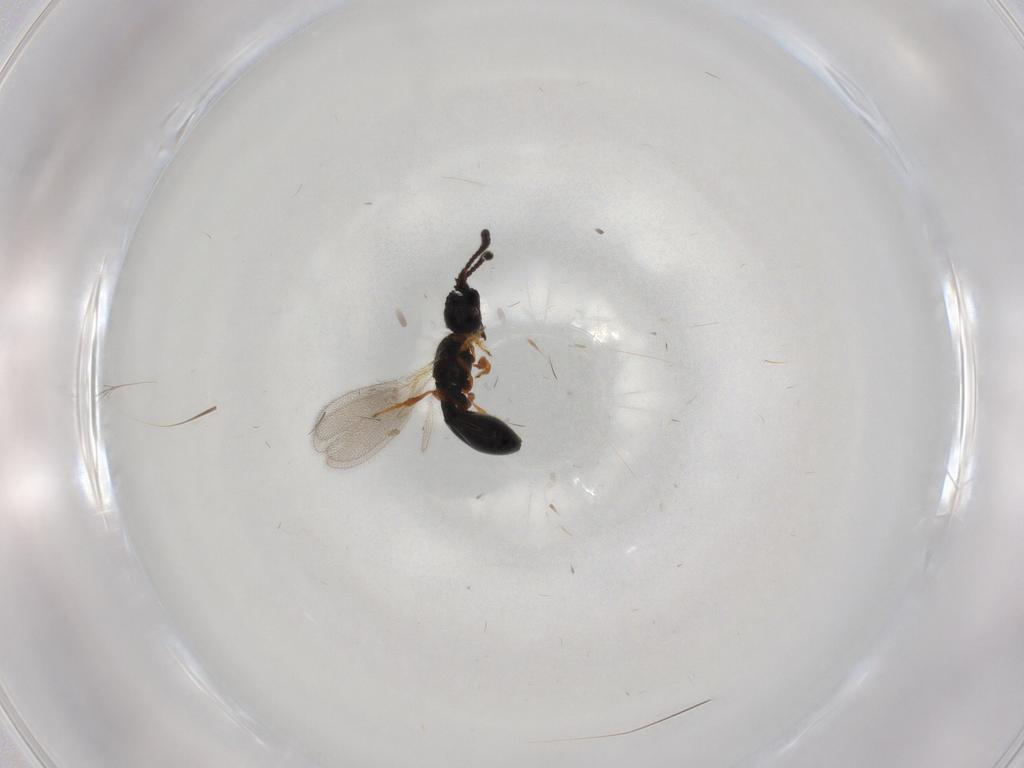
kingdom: Animalia
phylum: Arthropoda
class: Insecta
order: Hymenoptera
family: Diapriidae
